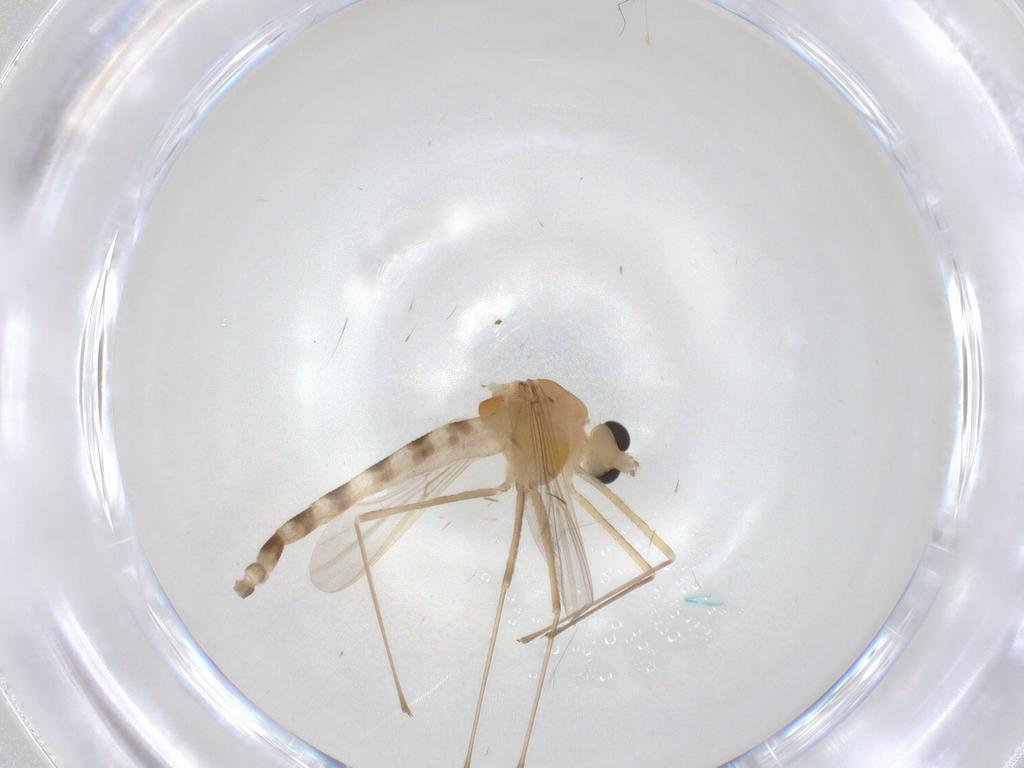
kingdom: Animalia
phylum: Arthropoda
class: Insecta
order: Diptera
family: Chironomidae
